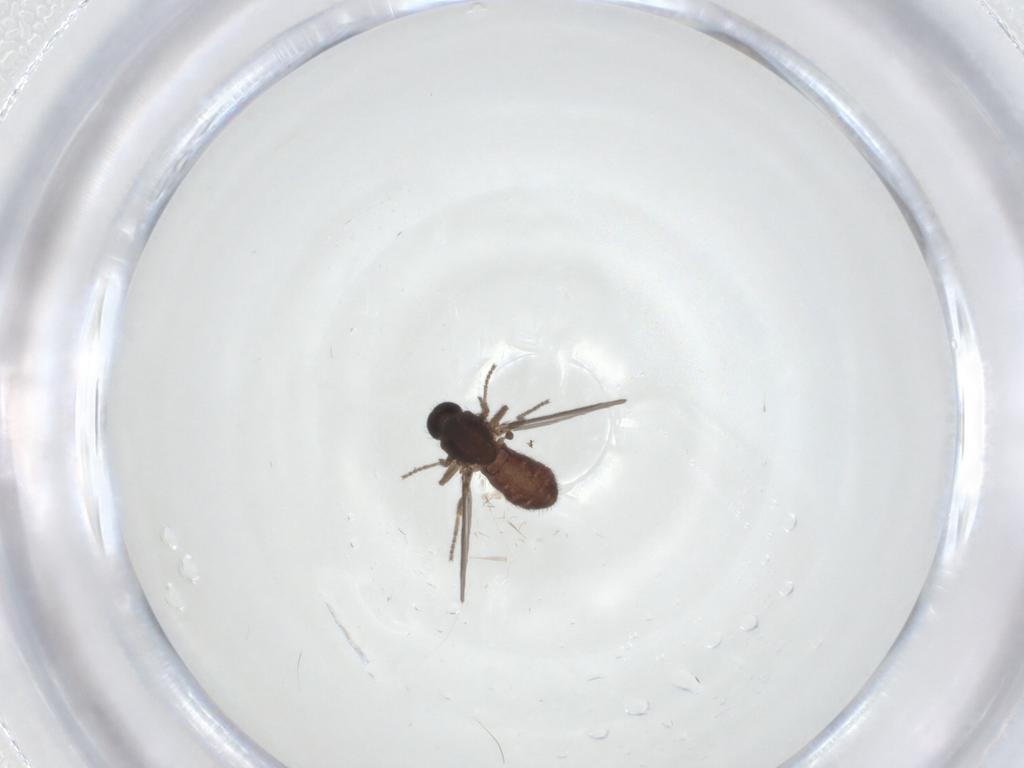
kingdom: Animalia
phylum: Arthropoda
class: Insecta
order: Diptera
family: Ceratopogonidae
